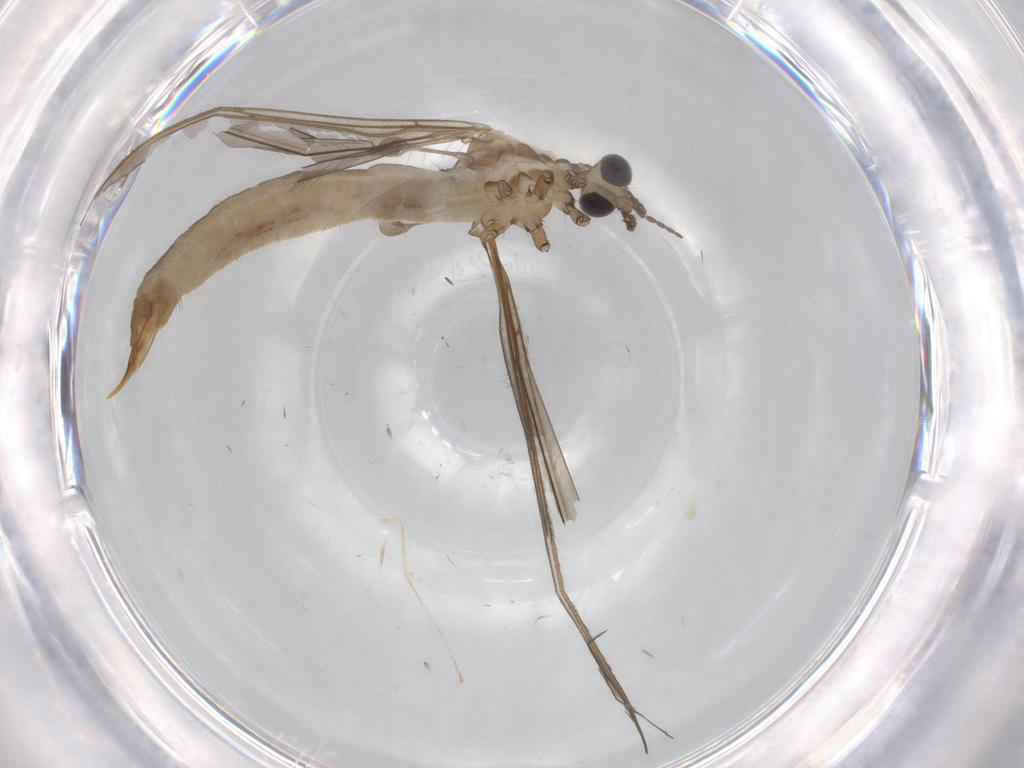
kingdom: Animalia
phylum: Arthropoda
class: Insecta
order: Diptera
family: Limoniidae
